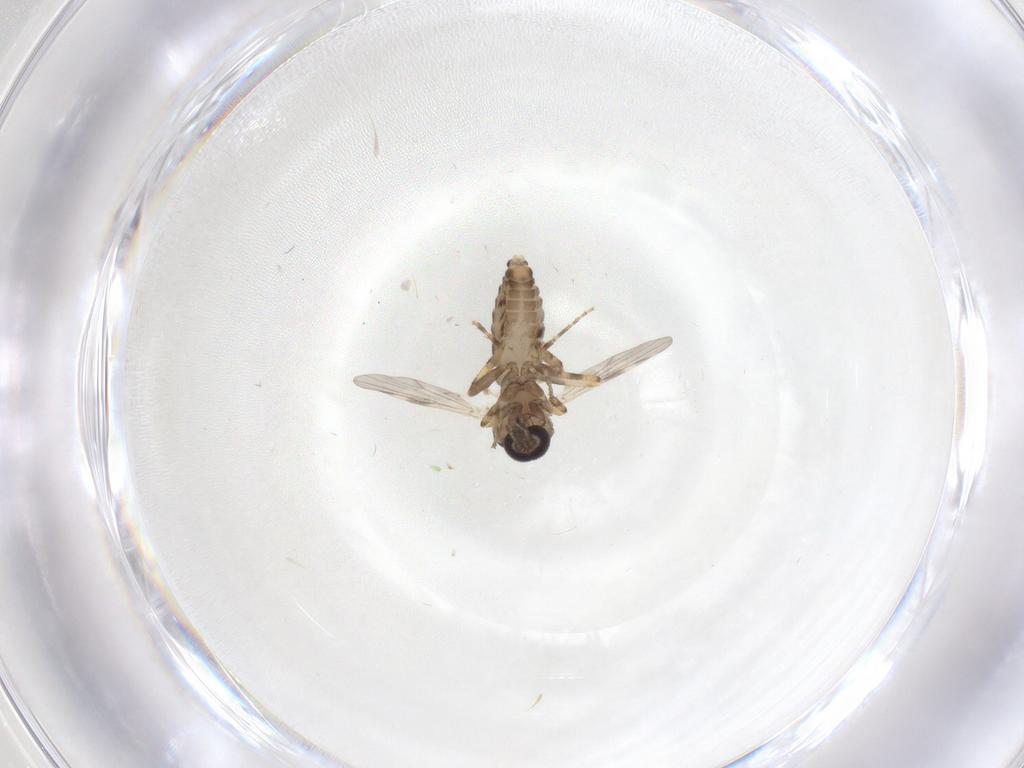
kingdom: Animalia
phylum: Arthropoda
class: Insecta
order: Diptera
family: Ceratopogonidae
